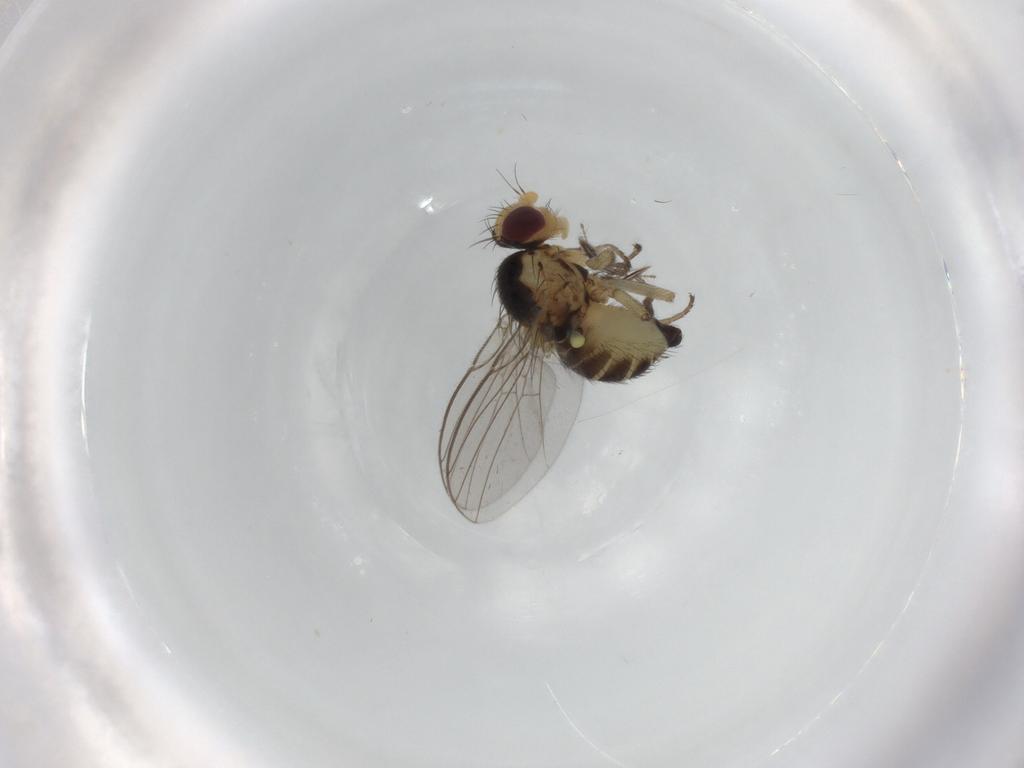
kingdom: Animalia
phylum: Arthropoda
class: Insecta
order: Diptera
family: Agromyzidae
